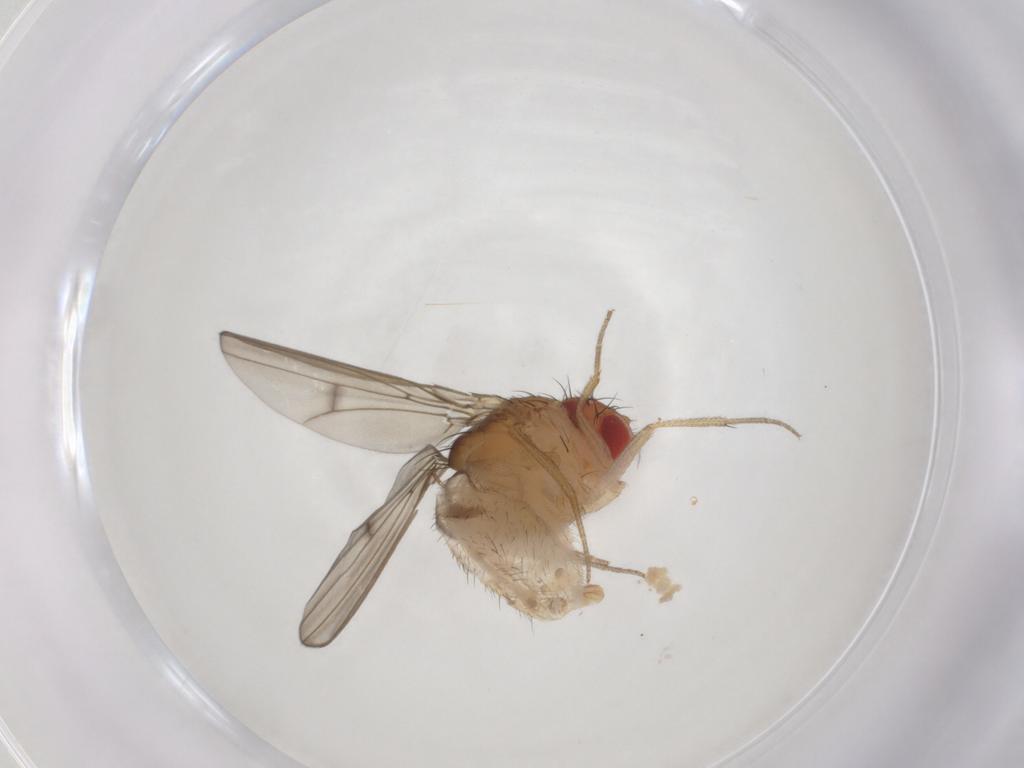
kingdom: Animalia
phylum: Arthropoda
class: Insecta
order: Diptera
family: Drosophilidae
